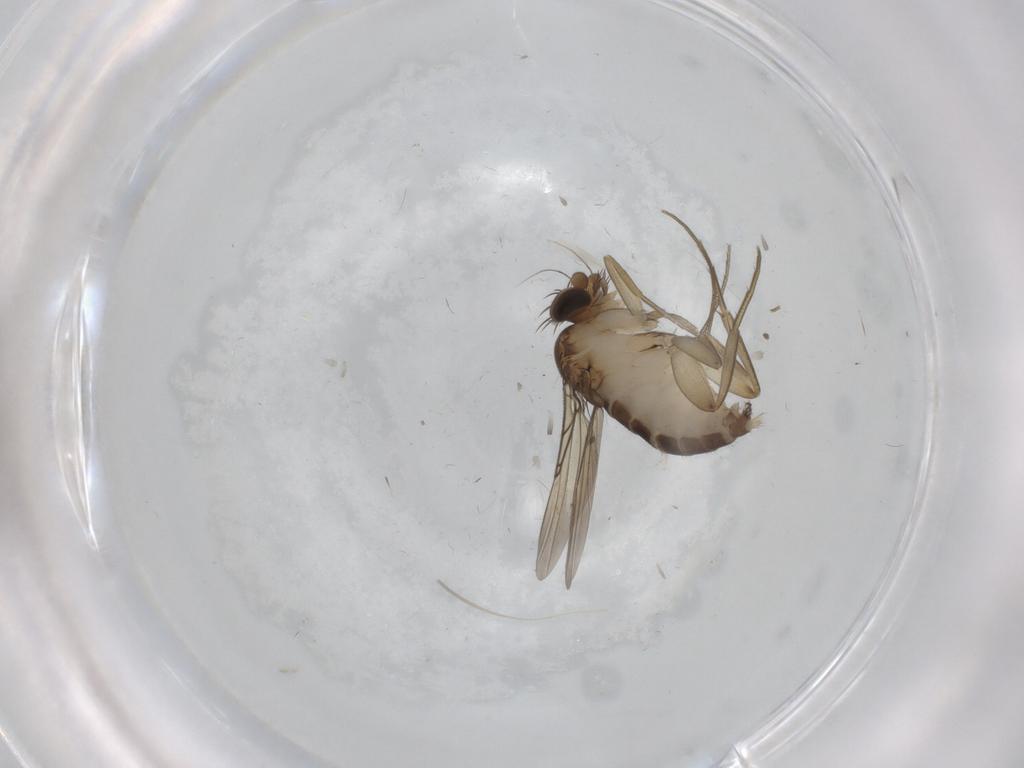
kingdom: Animalia
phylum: Arthropoda
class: Insecta
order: Diptera
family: Phoridae
